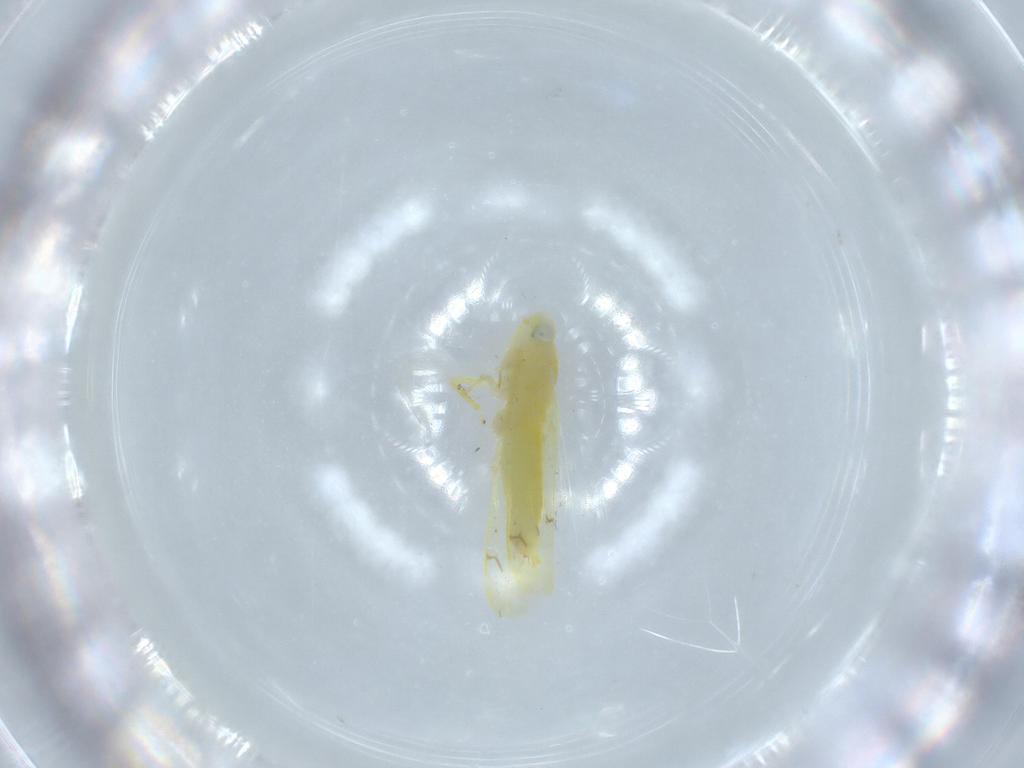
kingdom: Animalia
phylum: Arthropoda
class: Insecta
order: Hemiptera
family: Cicadellidae
